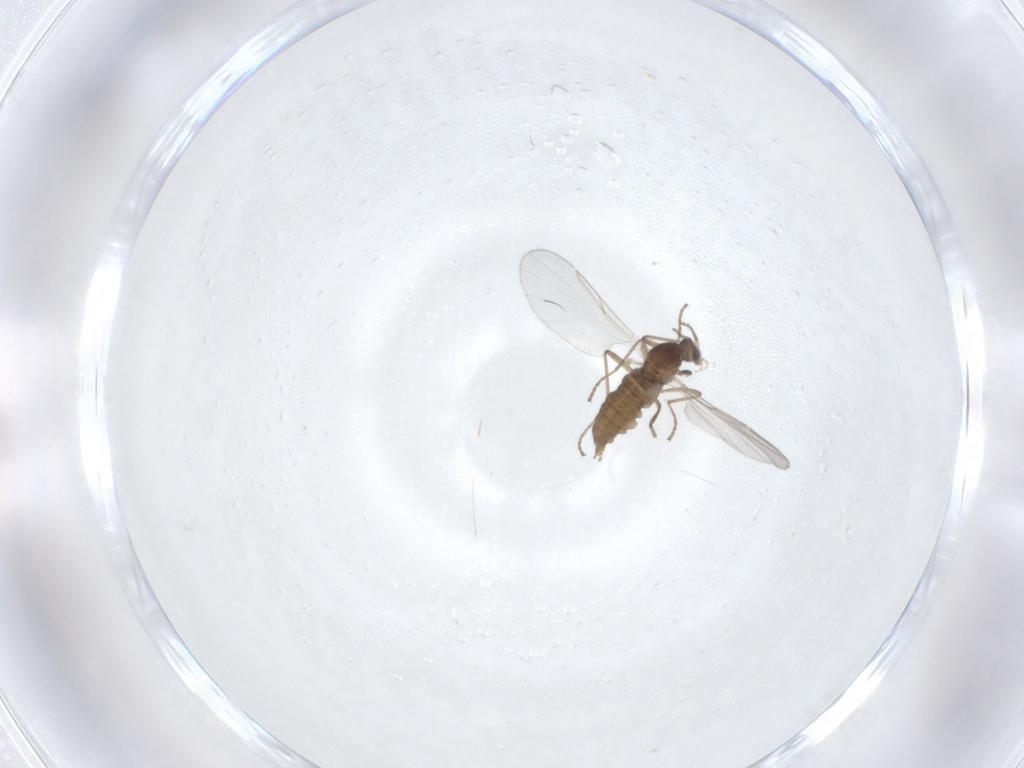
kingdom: Animalia
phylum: Arthropoda
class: Insecta
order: Diptera
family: Cecidomyiidae
